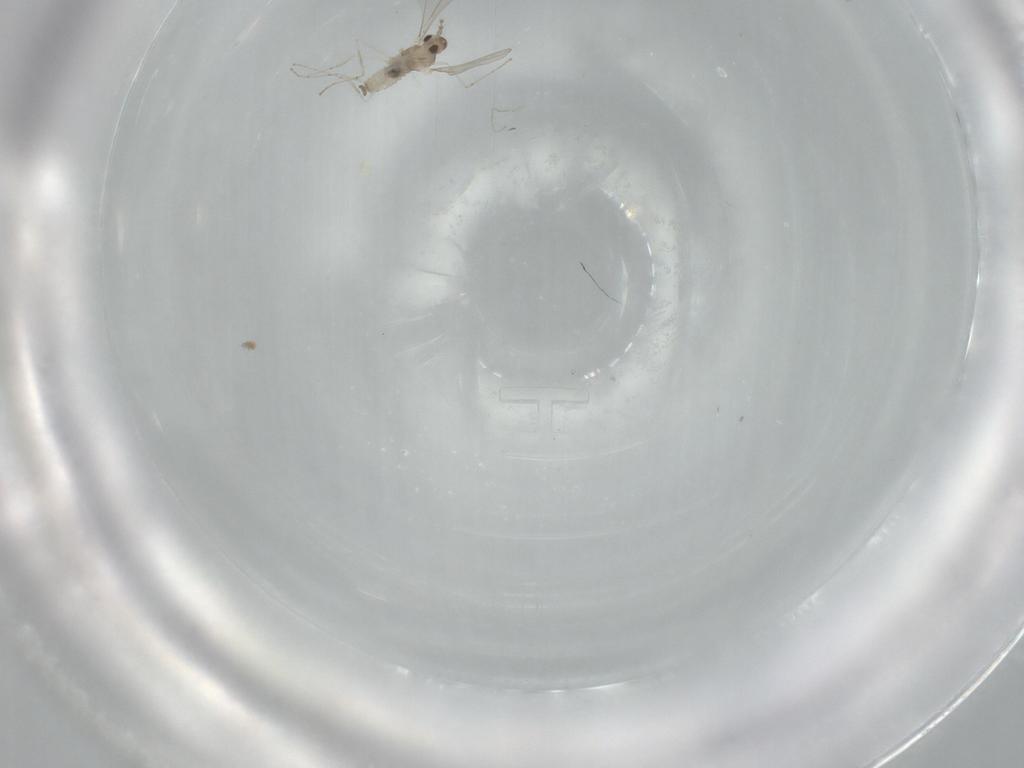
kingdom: Animalia
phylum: Arthropoda
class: Insecta
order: Diptera
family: Cecidomyiidae
